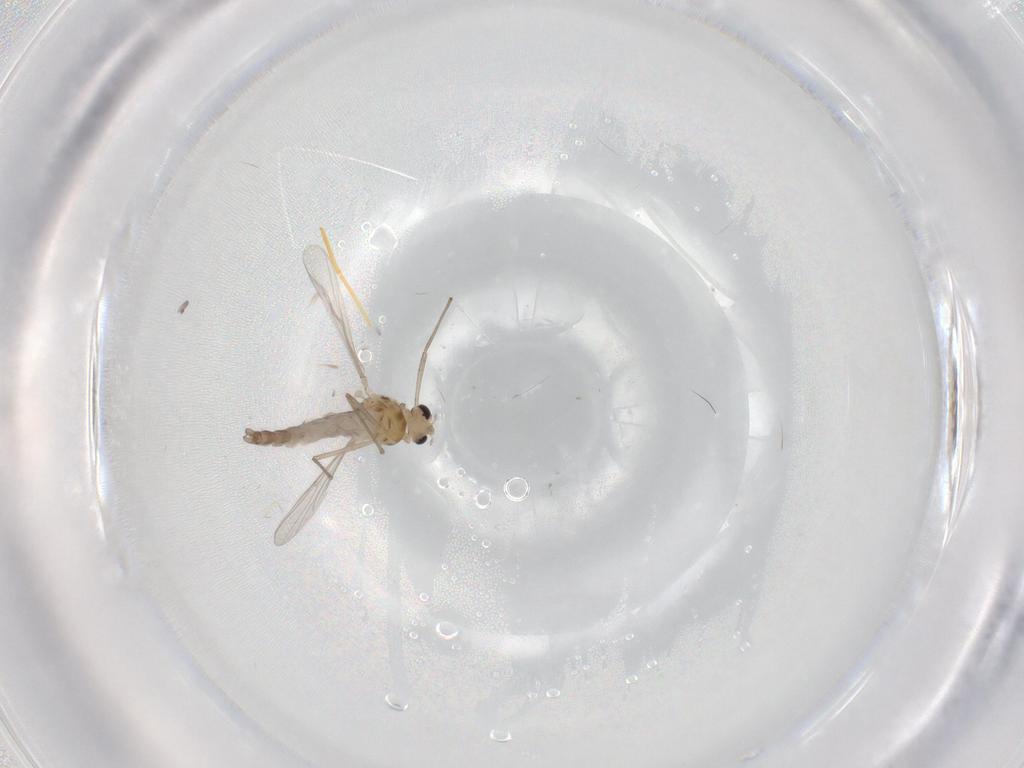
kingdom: Animalia
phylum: Arthropoda
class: Insecta
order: Diptera
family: Chironomidae
